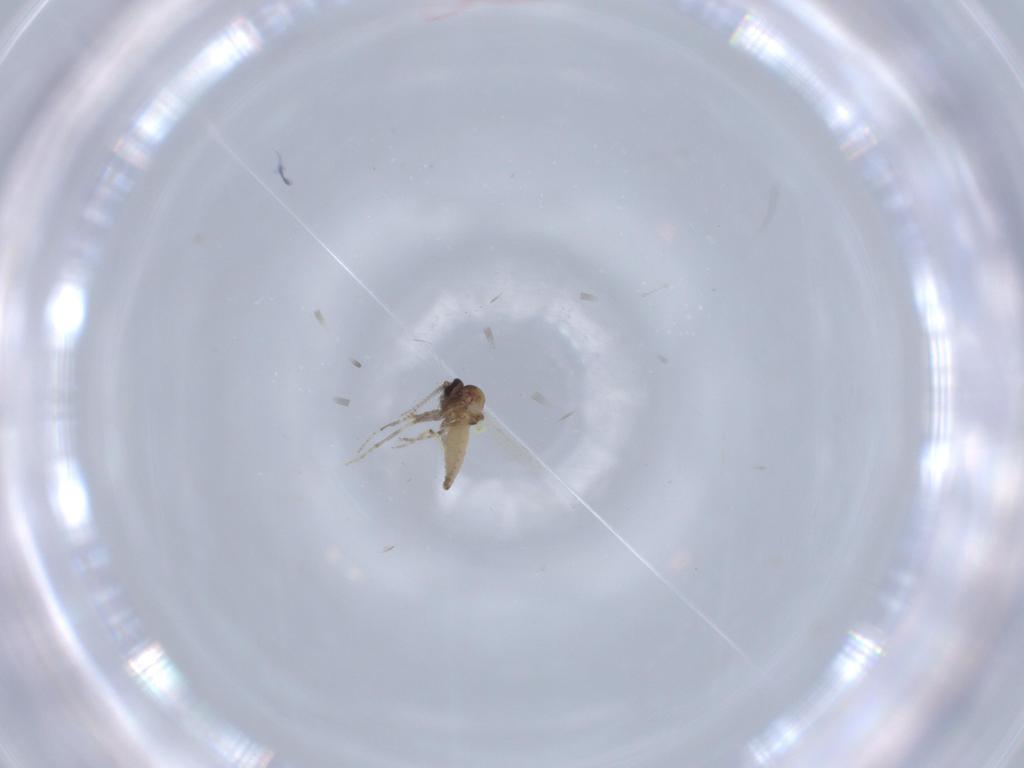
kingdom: Animalia
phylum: Arthropoda
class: Insecta
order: Diptera
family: Ceratopogonidae
